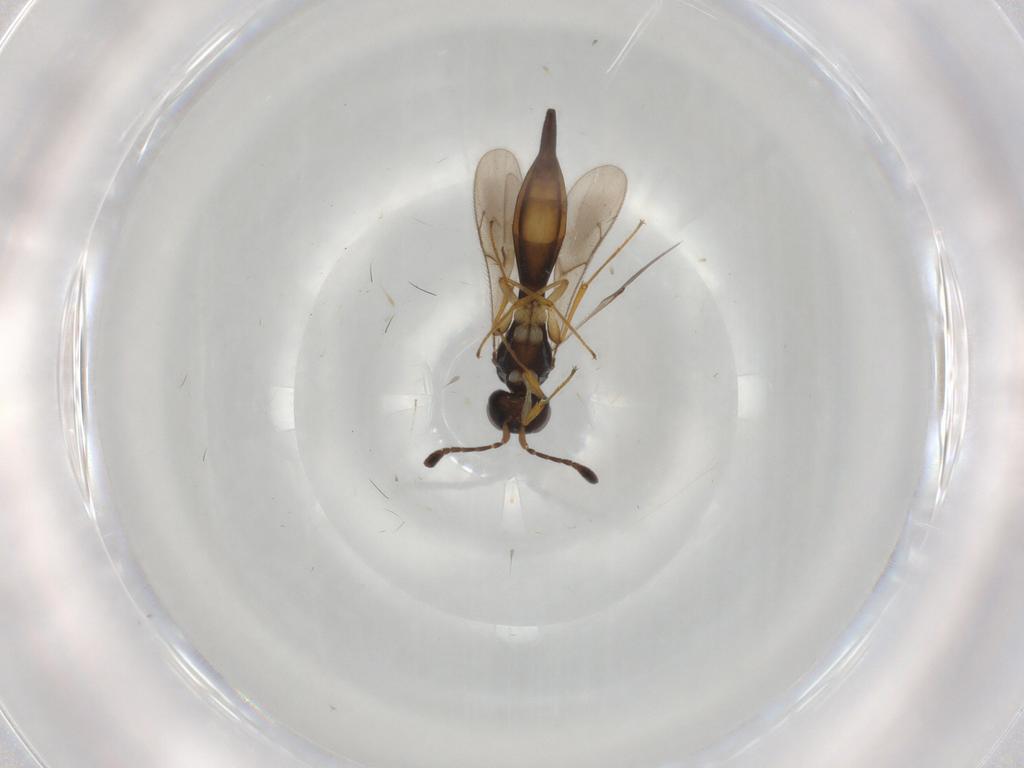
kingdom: Animalia
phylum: Arthropoda
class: Insecta
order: Hymenoptera
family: Scelionidae
